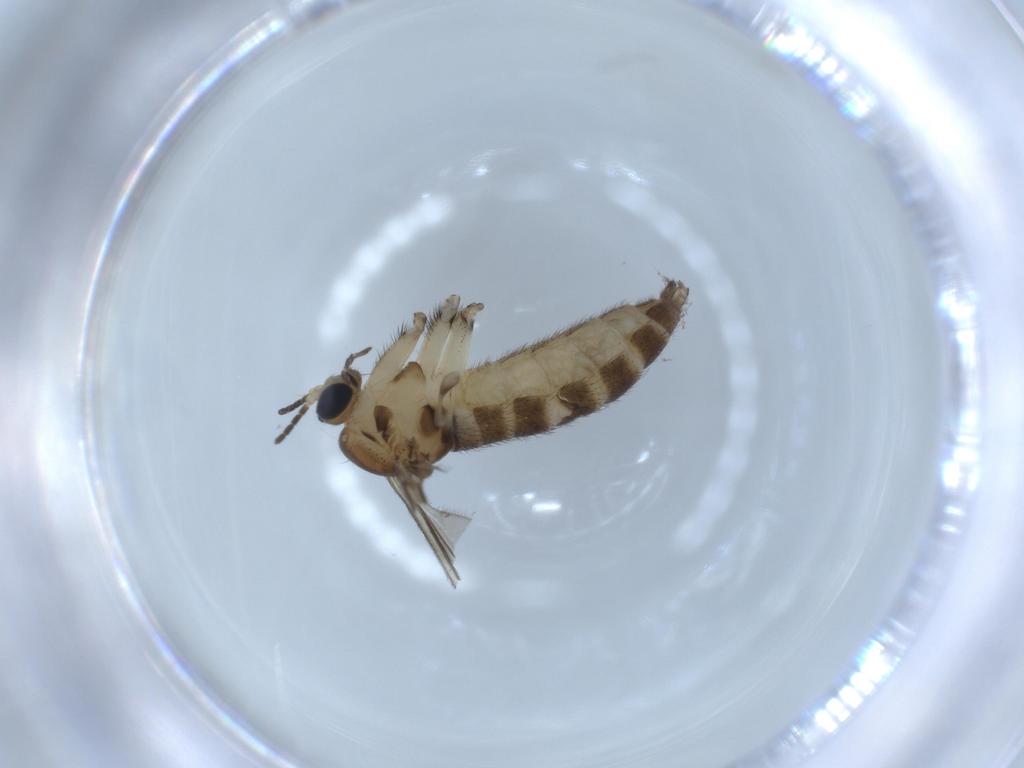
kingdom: Animalia
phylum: Arthropoda
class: Insecta
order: Diptera
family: Sciaridae
